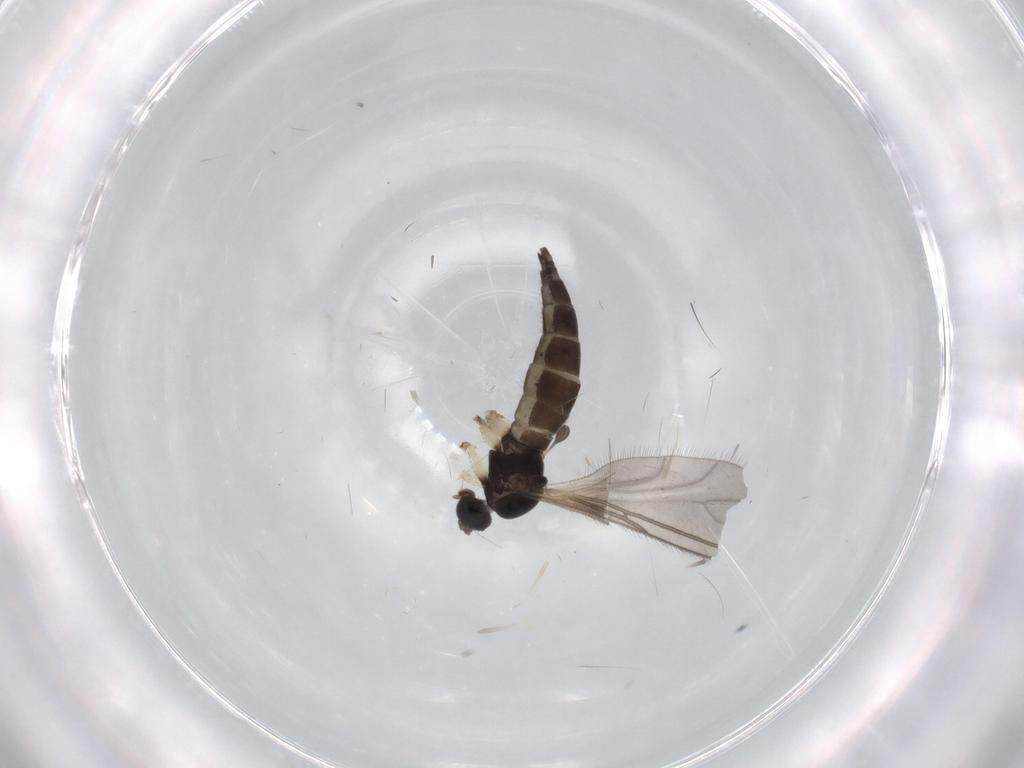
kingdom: Animalia
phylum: Arthropoda
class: Insecta
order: Diptera
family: Sciaridae
